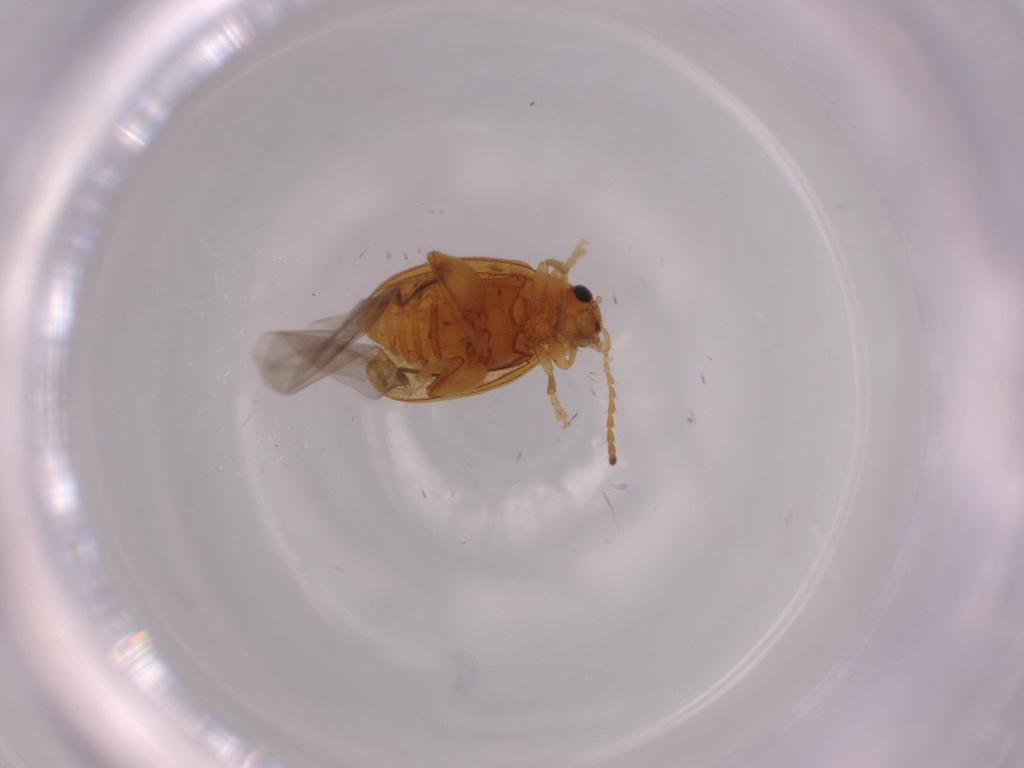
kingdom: Animalia
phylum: Arthropoda
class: Insecta
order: Coleoptera
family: Chrysomelidae
